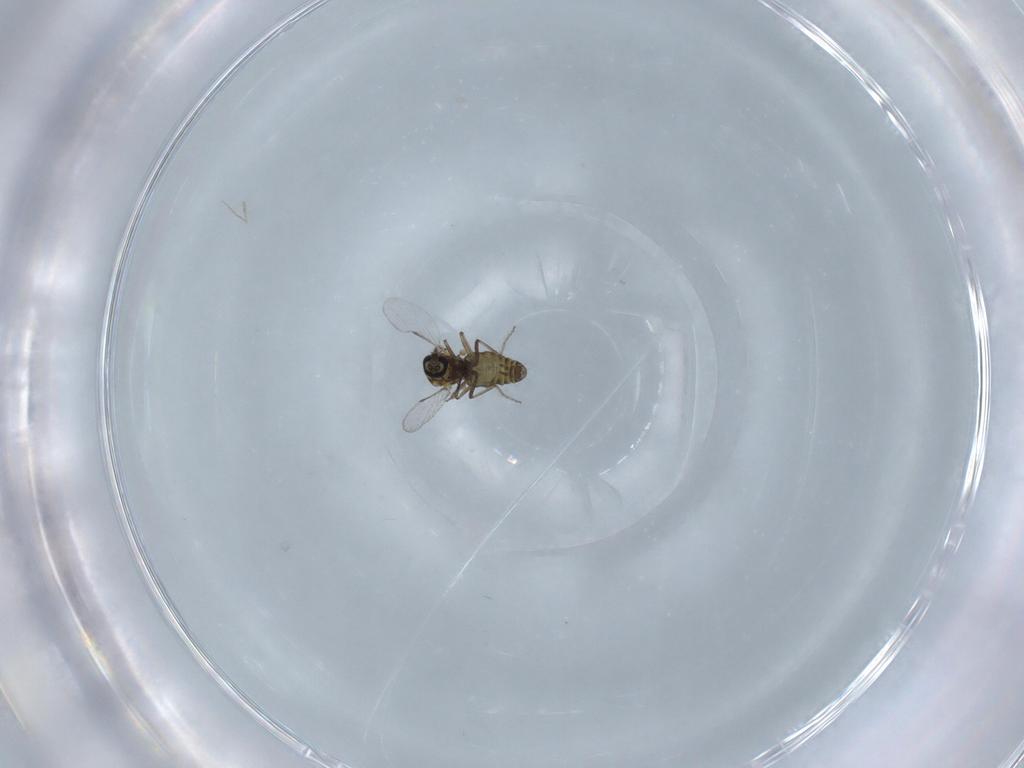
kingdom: Animalia
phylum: Arthropoda
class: Insecta
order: Diptera
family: Ceratopogonidae
